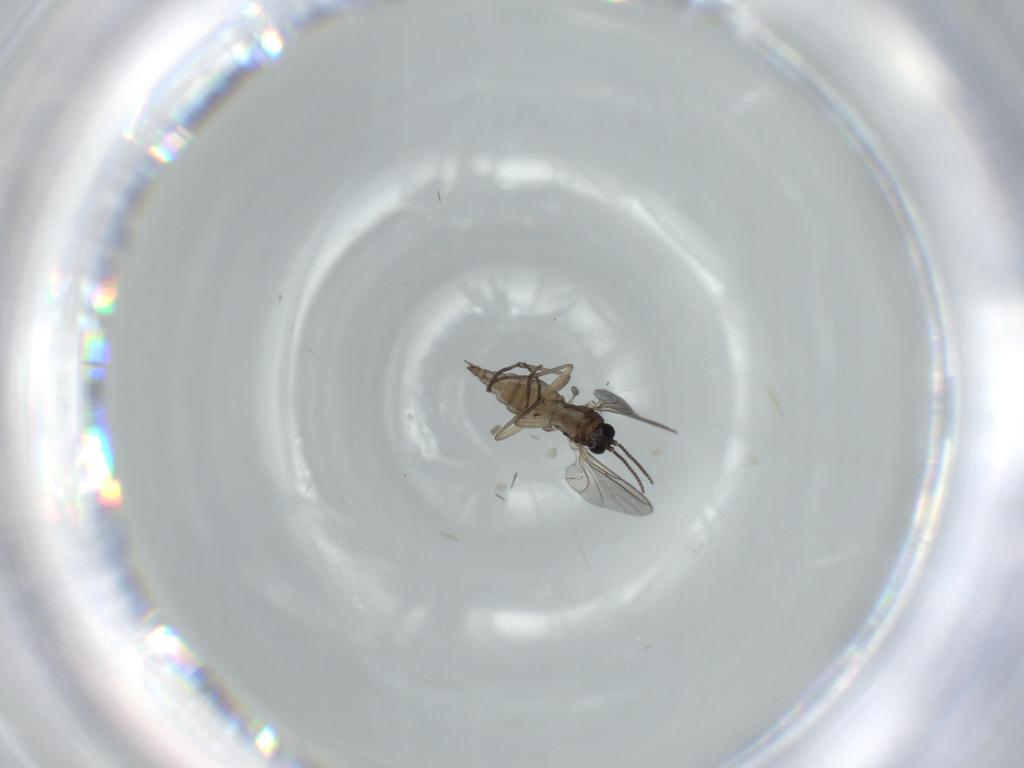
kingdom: Animalia
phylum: Arthropoda
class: Insecta
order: Diptera
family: Sciaridae
